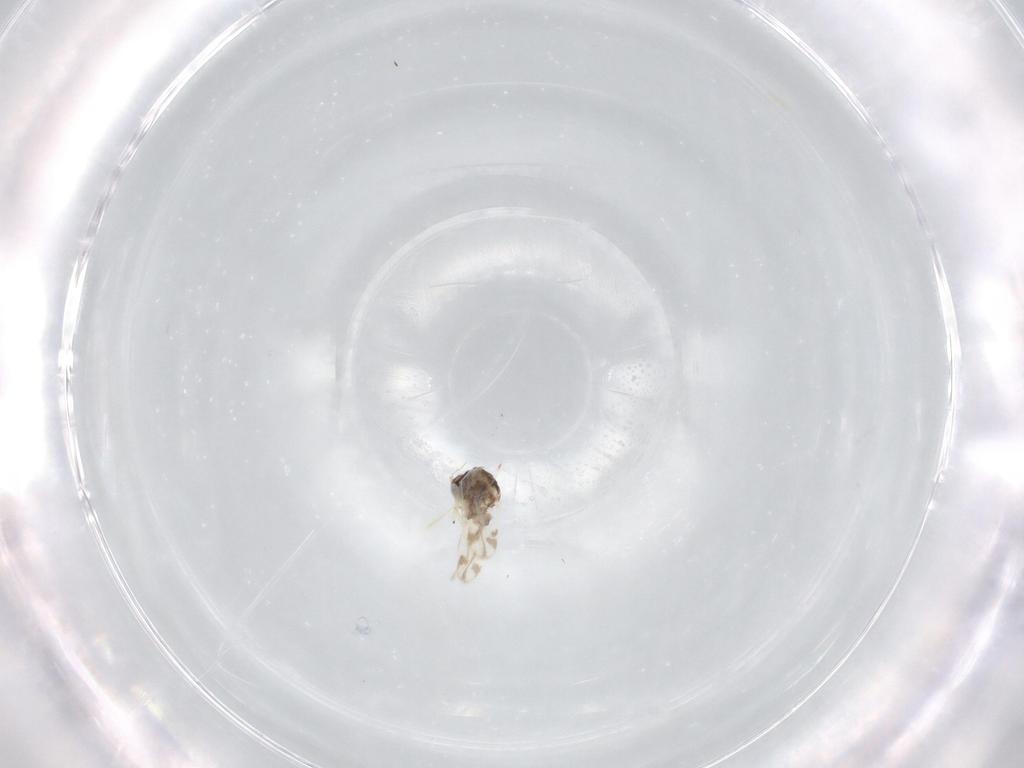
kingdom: Animalia
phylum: Arthropoda
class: Insecta
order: Hemiptera
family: Aleyrodidae
